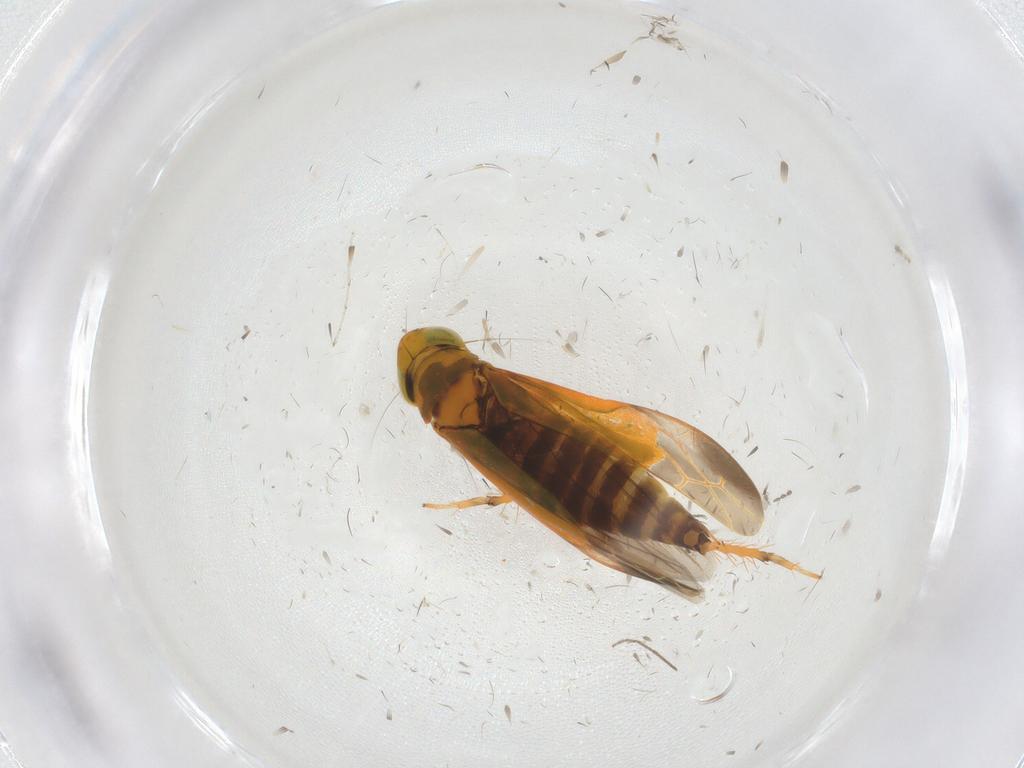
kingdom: Animalia
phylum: Arthropoda
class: Insecta
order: Hemiptera
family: Cicadellidae
